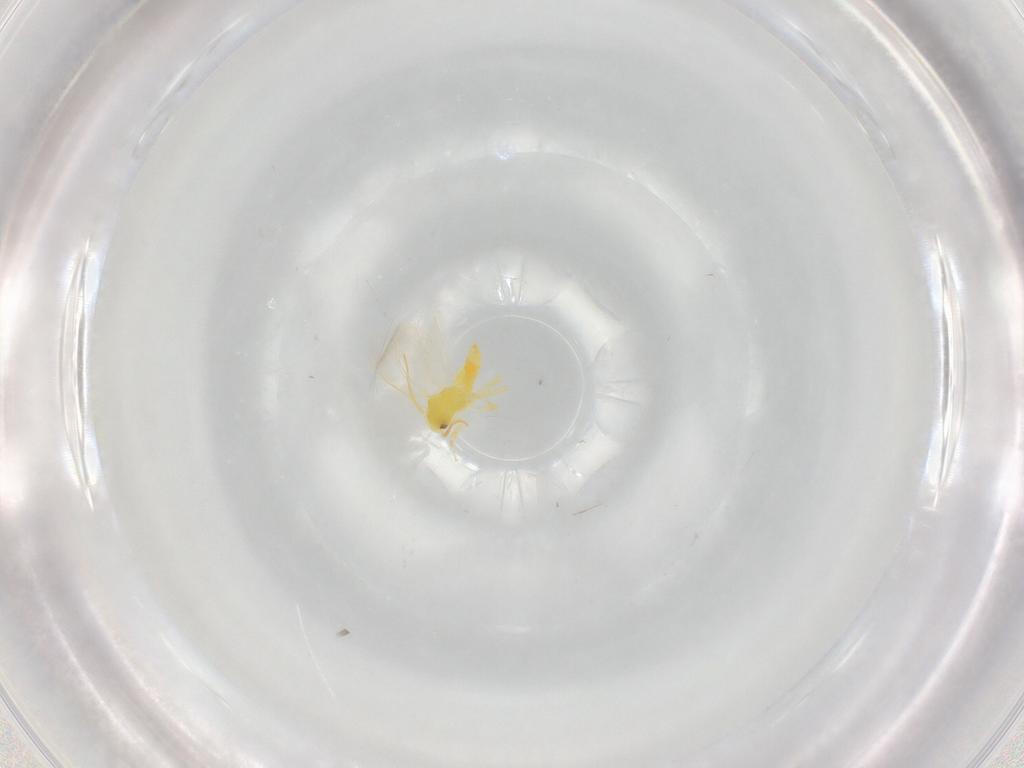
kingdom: Animalia
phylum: Arthropoda
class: Insecta
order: Hemiptera
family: Aleyrodidae
